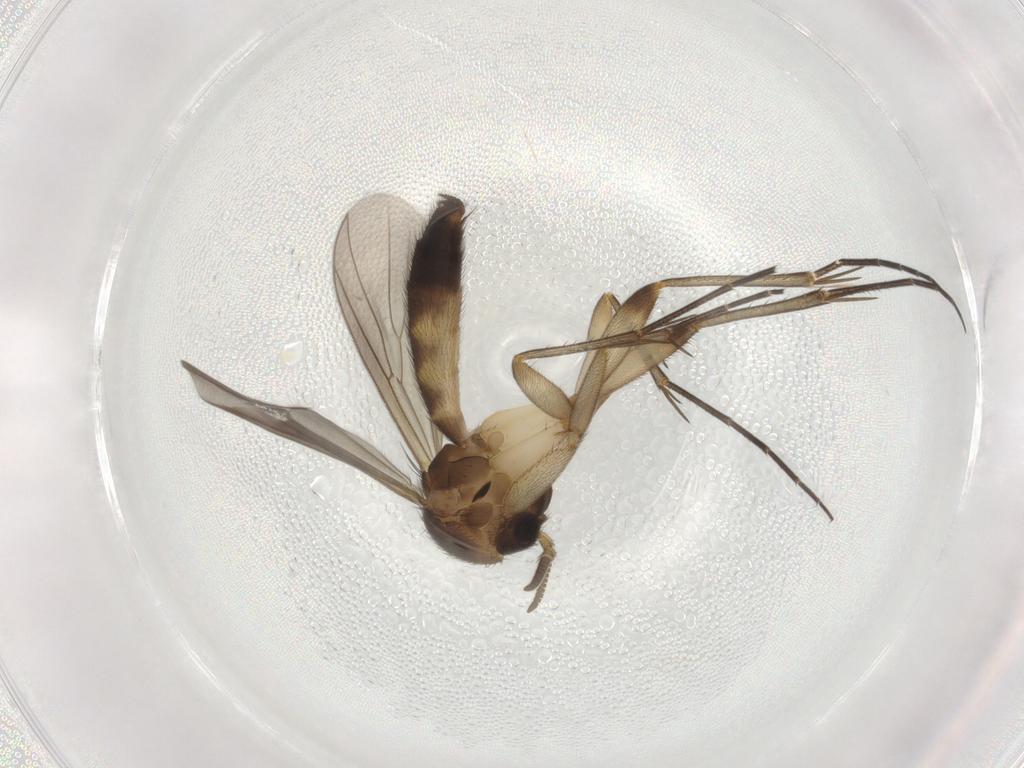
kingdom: Animalia
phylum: Arthropoda
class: Insecta
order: Diptera
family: Mycetophilidae
